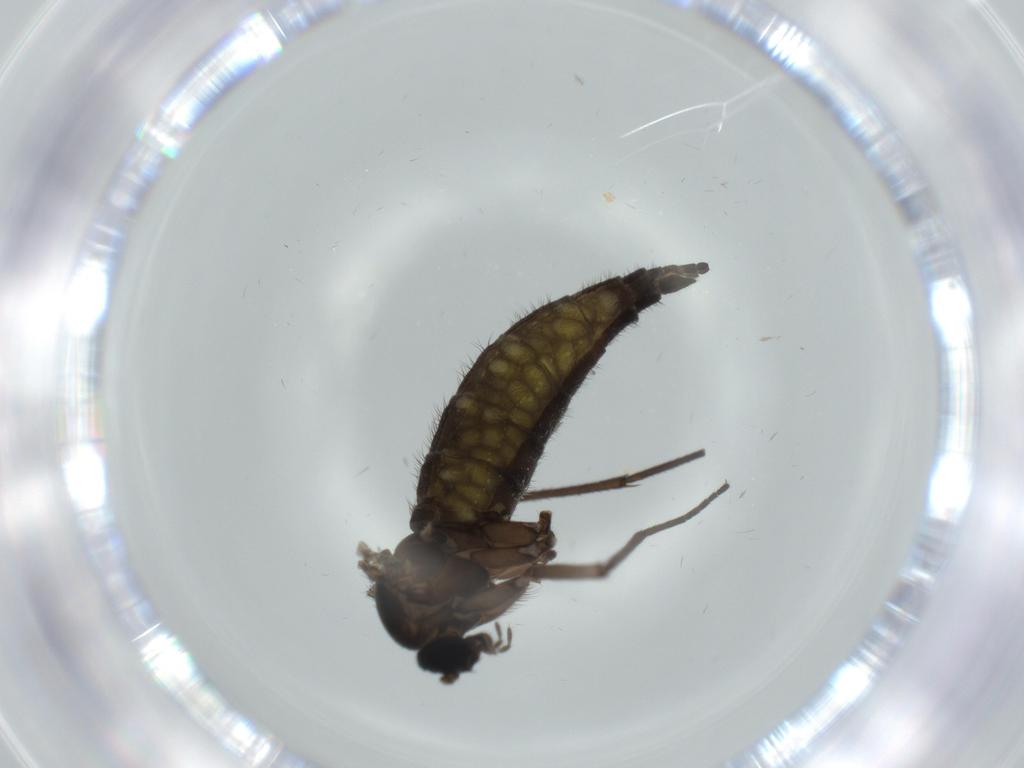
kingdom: Animalia
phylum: Arthropoda
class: Insecta
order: Diptera
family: Sciaridae
